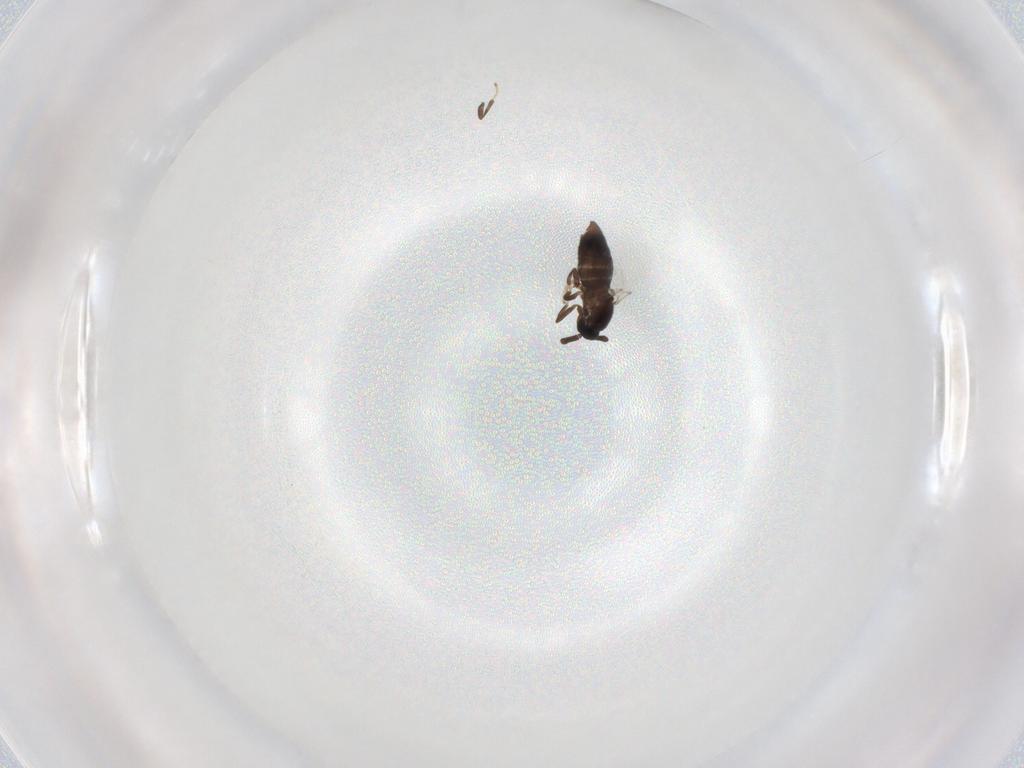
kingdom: Animalia
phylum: Arthropoda
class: Insecta
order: Diptera
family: Scatopsidae
